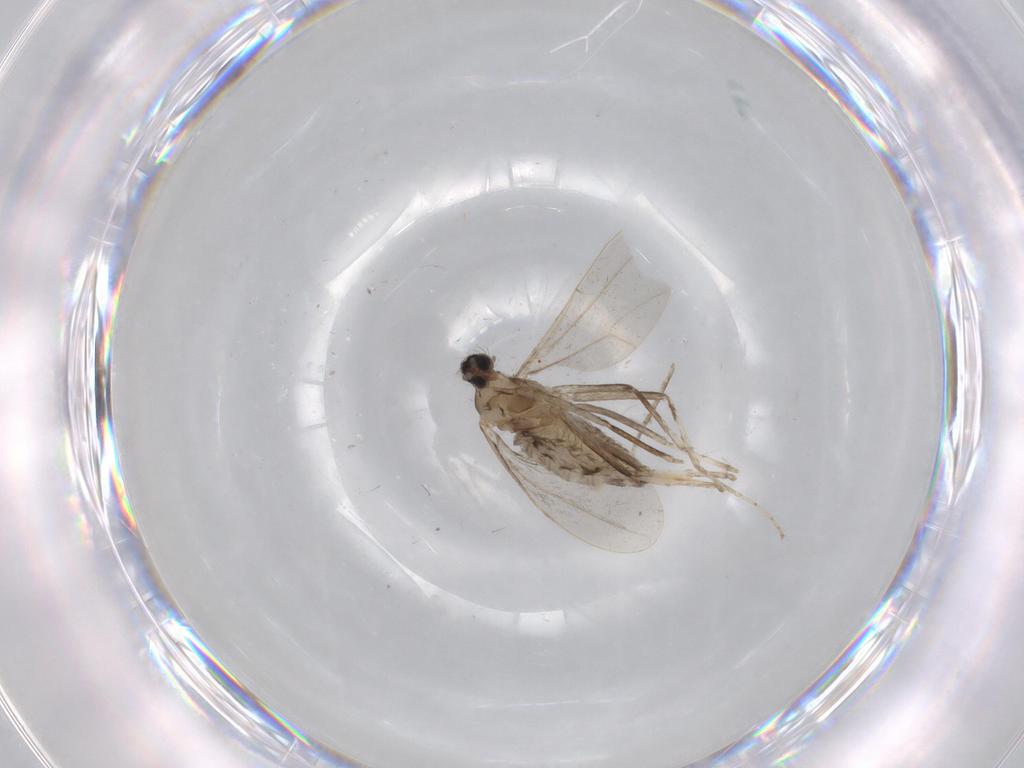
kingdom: Animalia
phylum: Arthropoda
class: Insecta
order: Diptera
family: Cecidomyiidae
